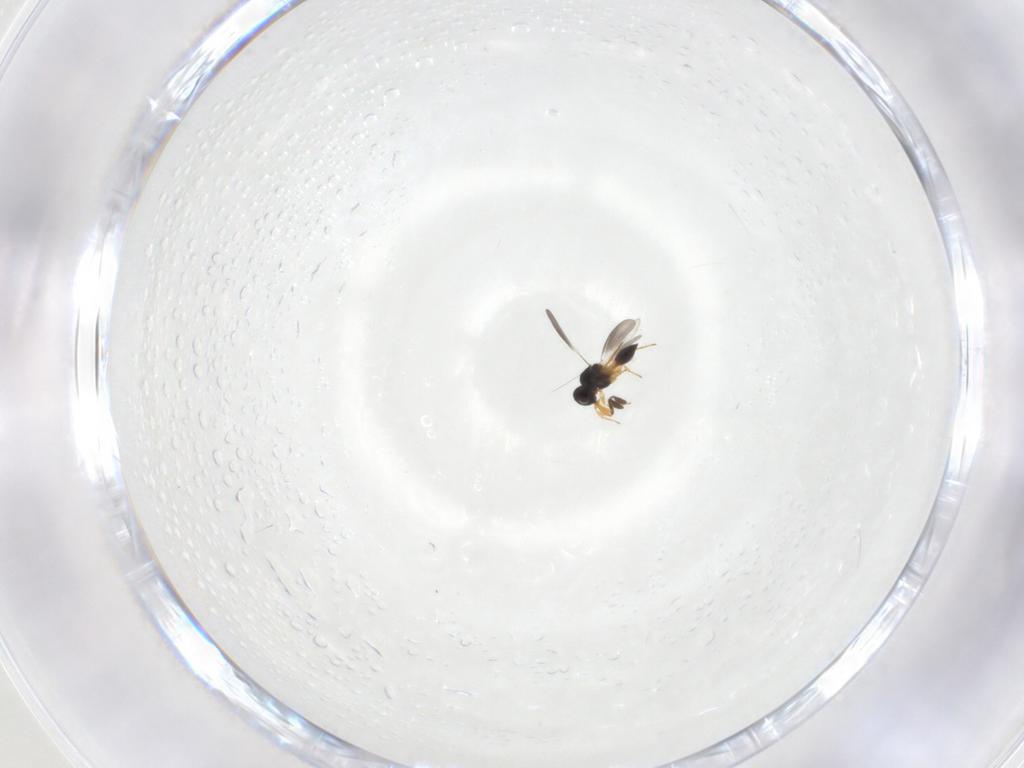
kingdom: Animalia
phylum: Arthropoda
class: Insecta
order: Hymenoptera
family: Platygastridae
